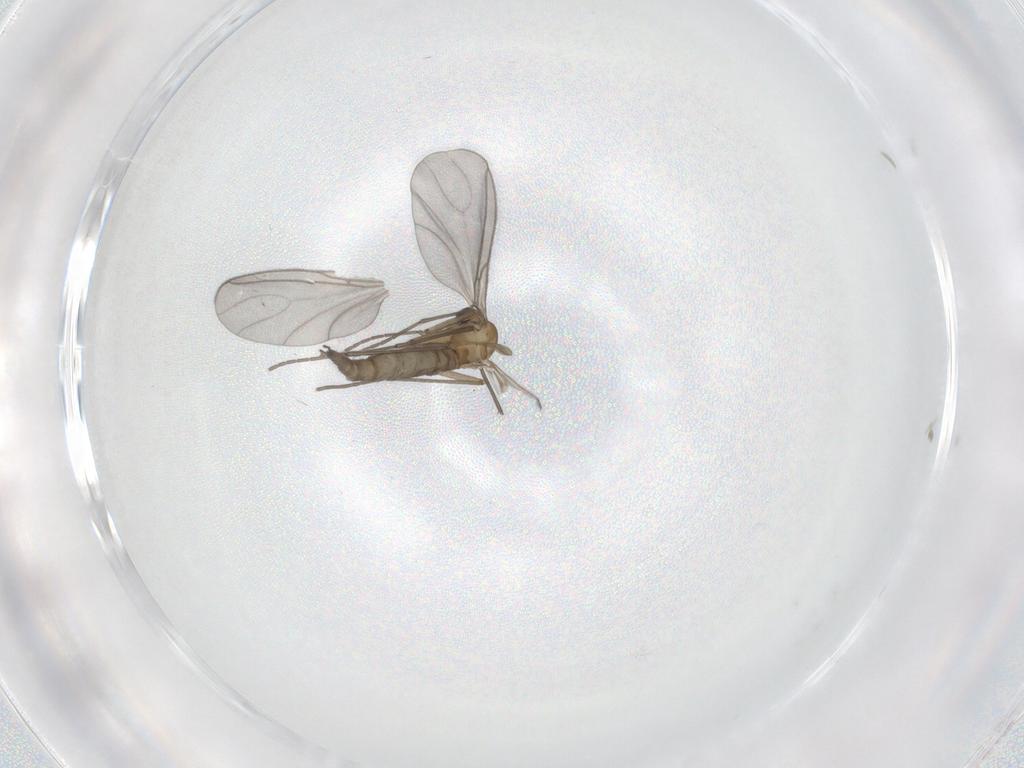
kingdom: Animalia
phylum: Arthropoda
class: Insecta
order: Diptera
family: Sciaridae
